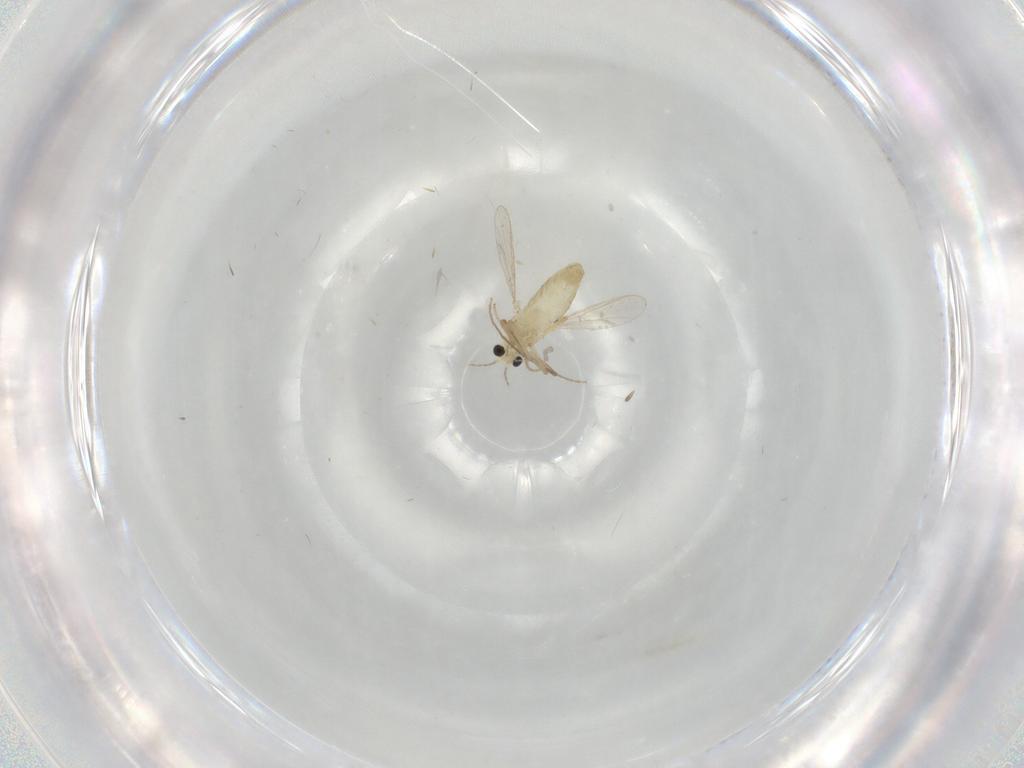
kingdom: Animalia
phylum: Arthropoda
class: Insecta
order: Diptera
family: Chironomidae
